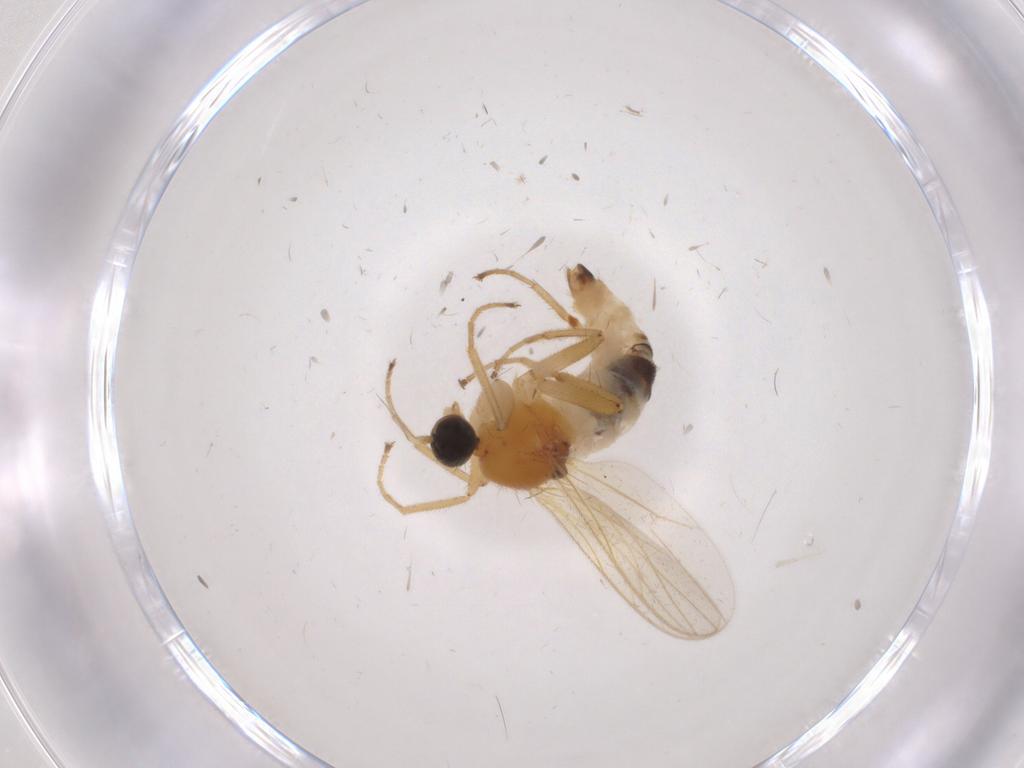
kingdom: Animalia
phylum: Arthropoda
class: Insecta
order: Diptera
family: Hybotidae
